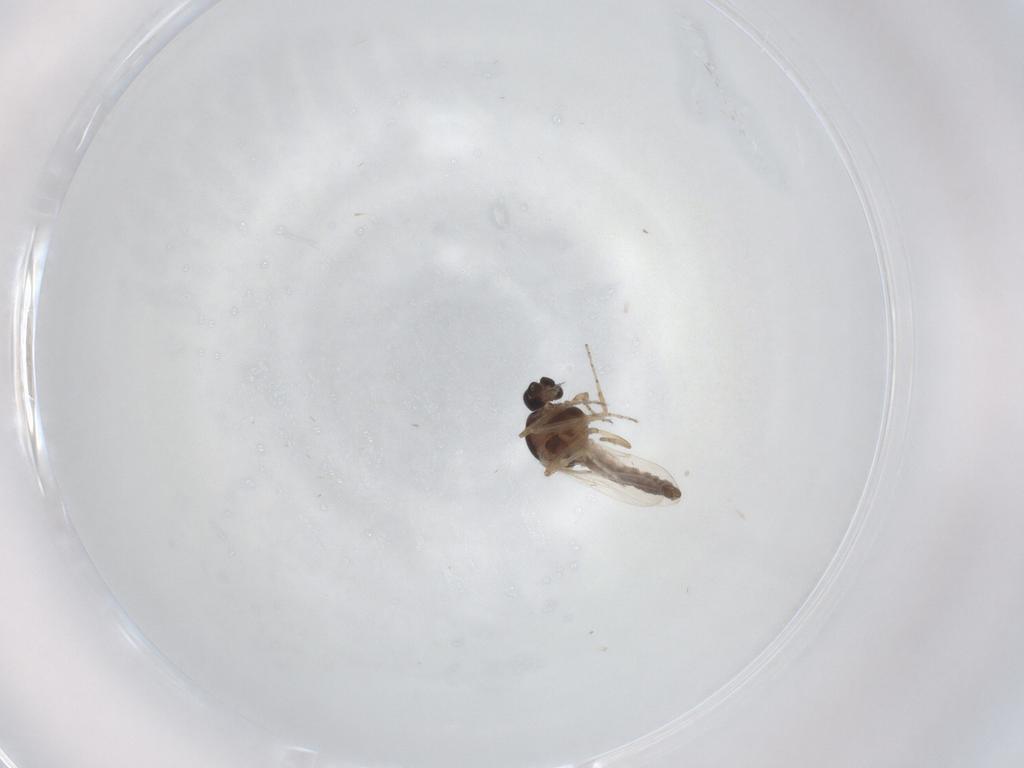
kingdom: Animalia
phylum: Arthropoda
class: Insecta
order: Diptera
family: Ceratopogonidae
